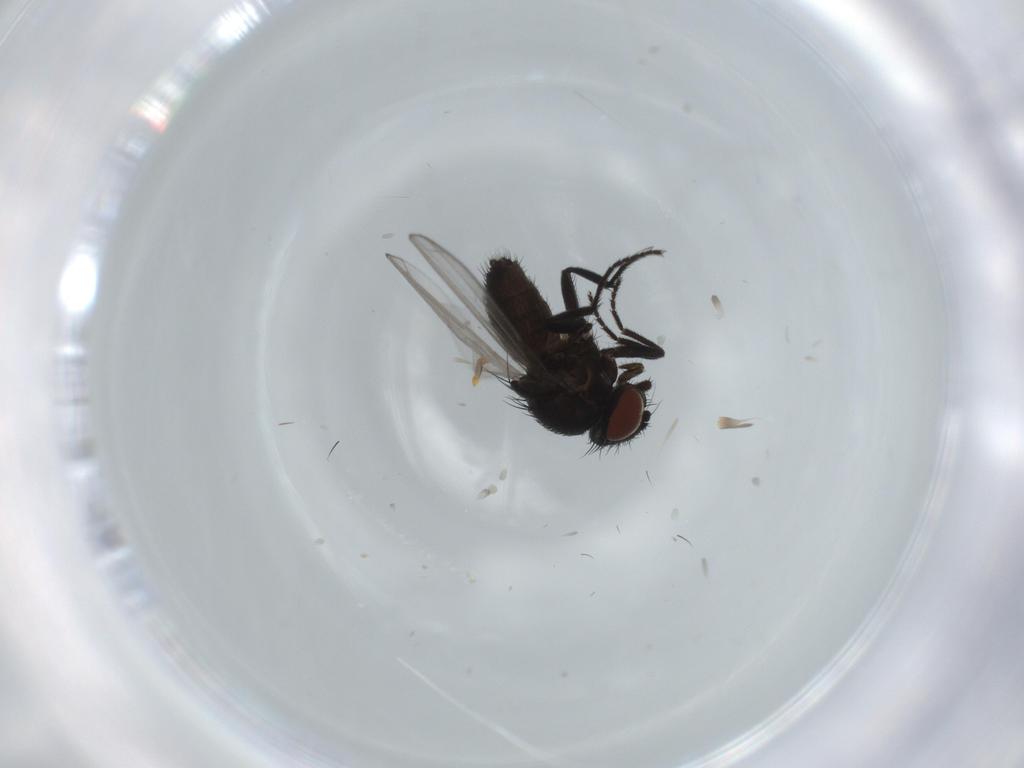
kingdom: Animalia
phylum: Arthropoda
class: Insecta
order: Diptera
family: Milichiidae
